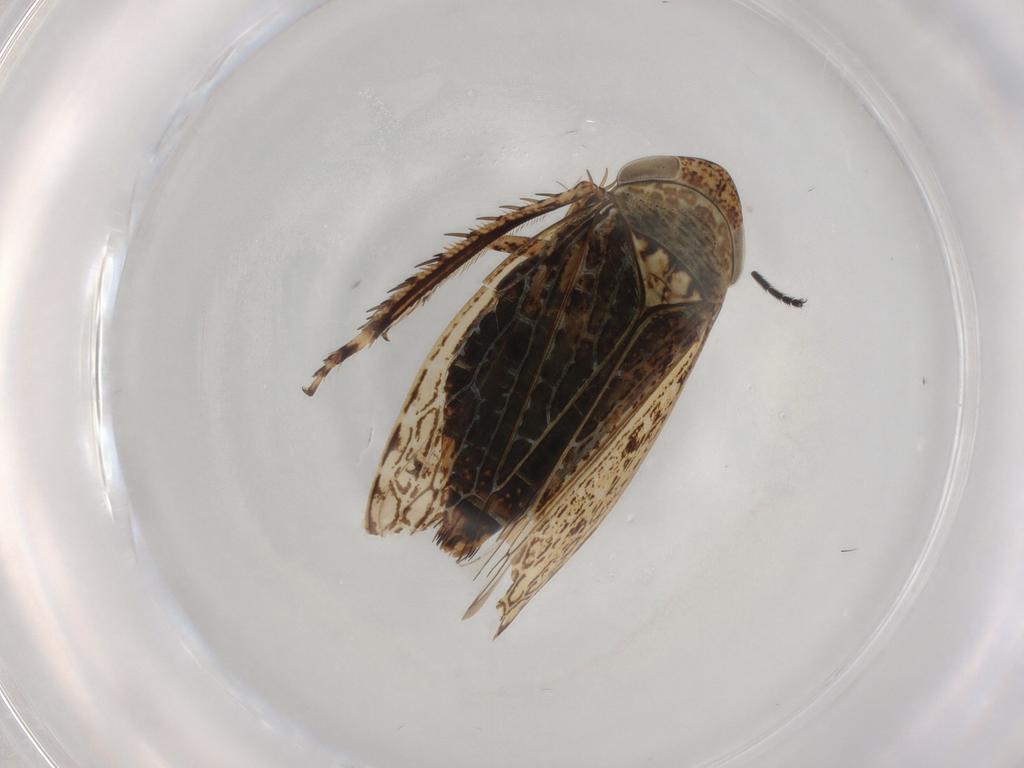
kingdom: Animalia
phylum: Arthropoda
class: Insecta
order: Hemiptera
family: Cicadellidae
